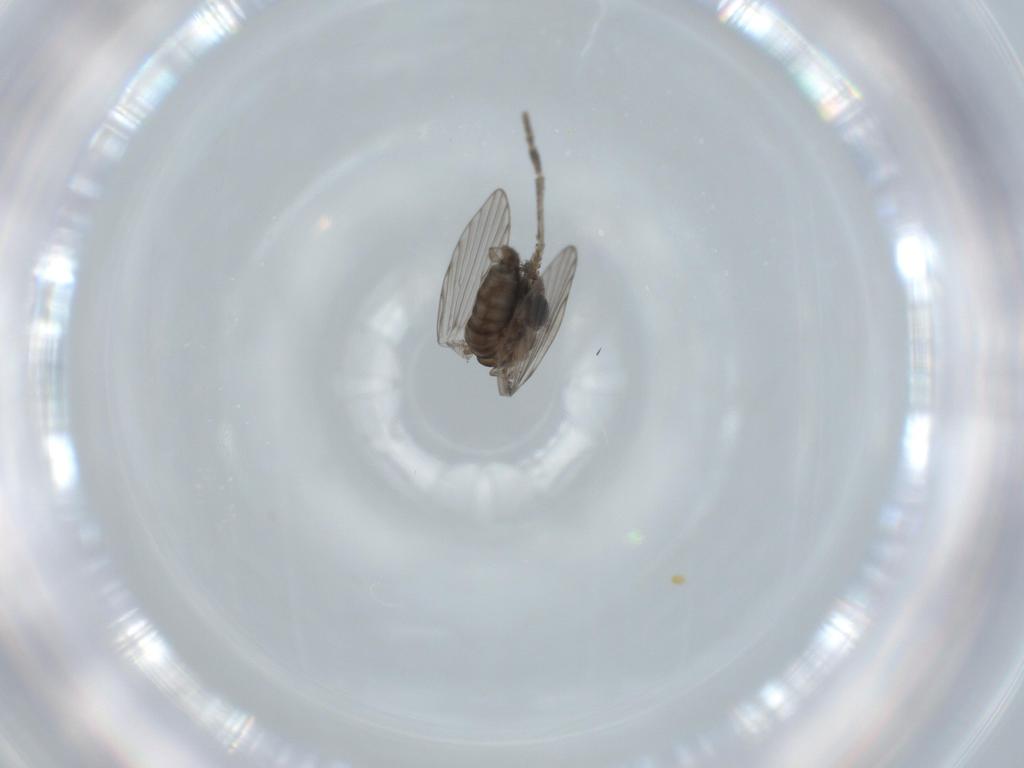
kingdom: Animalia
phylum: Arthropoda
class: Insecta
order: Diptera
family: Psychodidae
